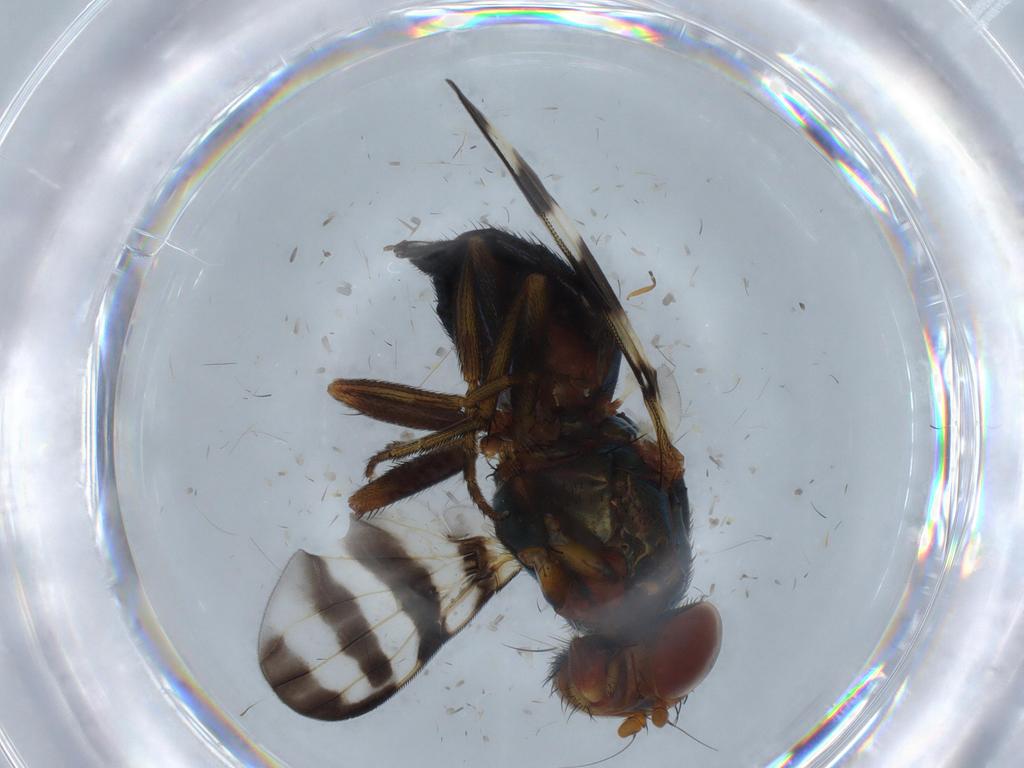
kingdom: Animalia
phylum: Arthropoda
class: Insecta
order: Diptera
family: Ulidiidae
